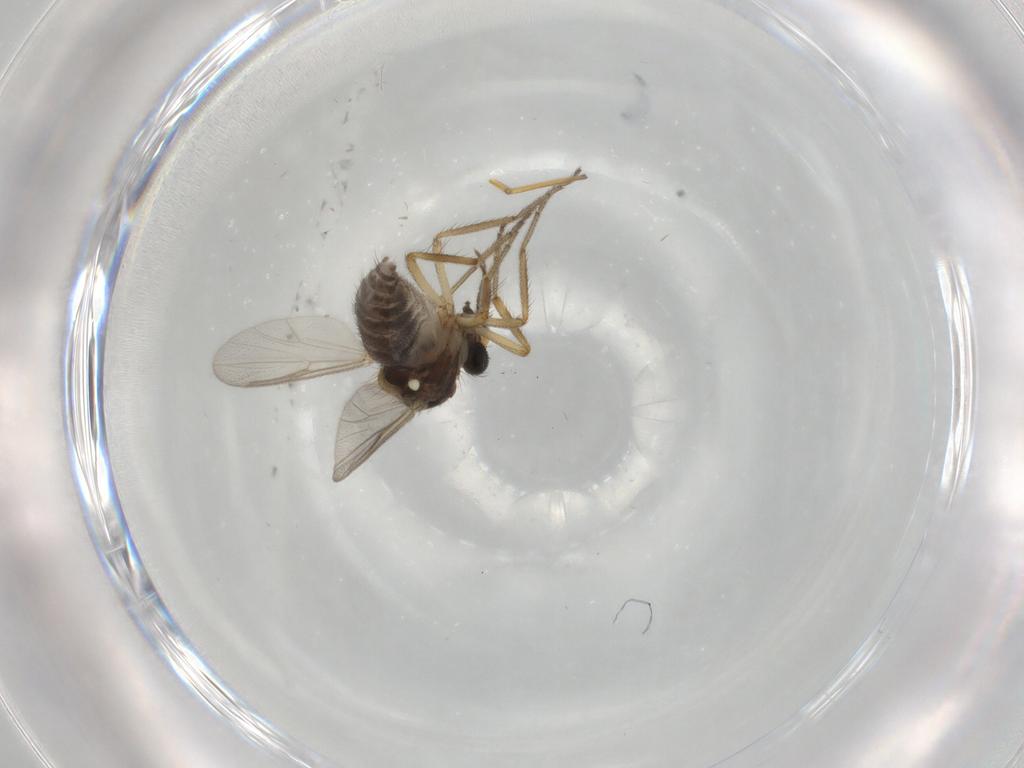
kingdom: Animalia
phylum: Arthropoda
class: Insecta
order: Diptera
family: Ceratopogonidae
